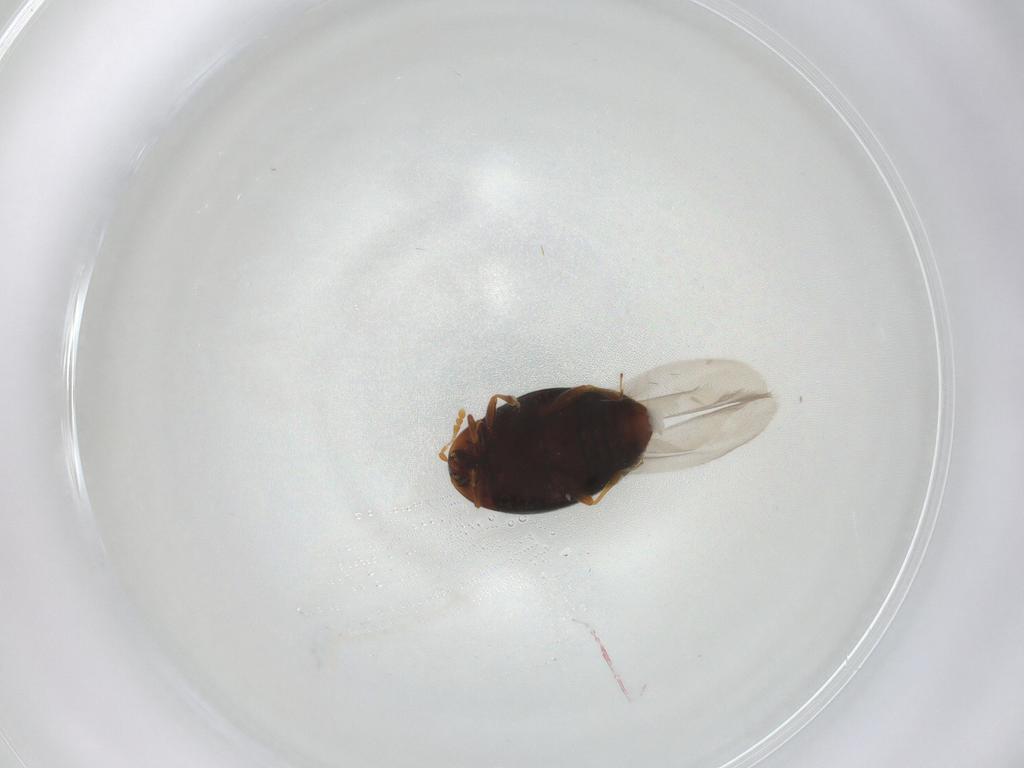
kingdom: Animalia
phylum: Arthropoda
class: Insecta
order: Coleoptera
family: Corylophidae
